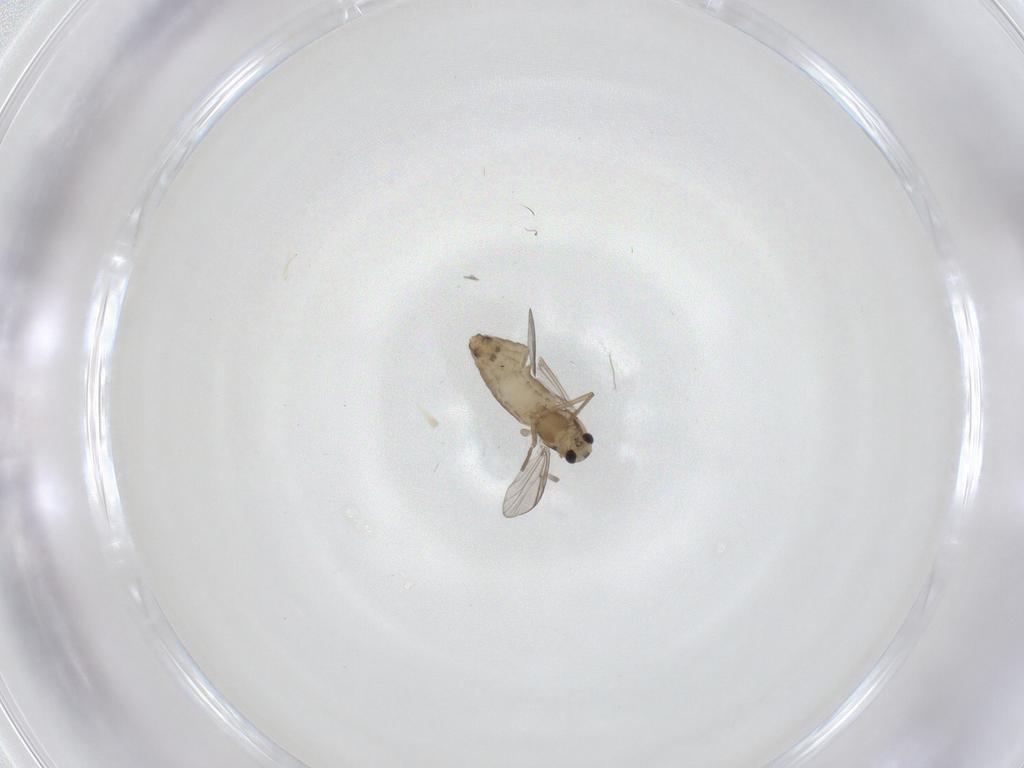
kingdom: Animalia
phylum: Arthropoda
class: Insecta
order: Diptera
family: Chironomidae
